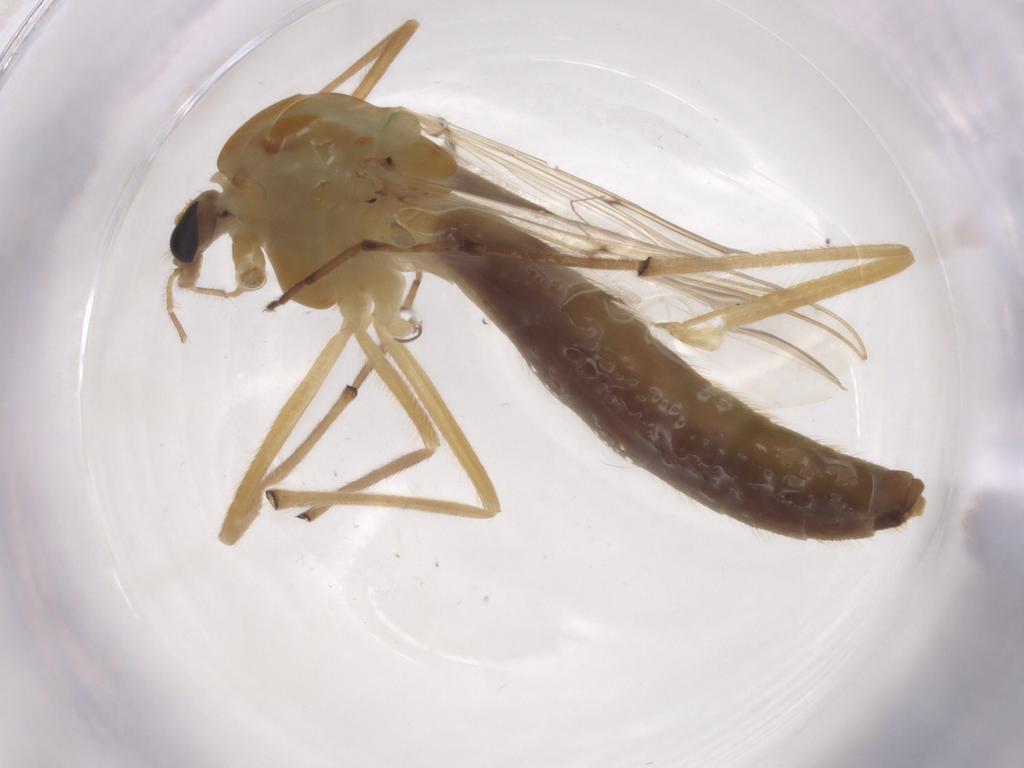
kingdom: Animalia
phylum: Arthropoda
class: Insecta
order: Diptera
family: Chironomidae
